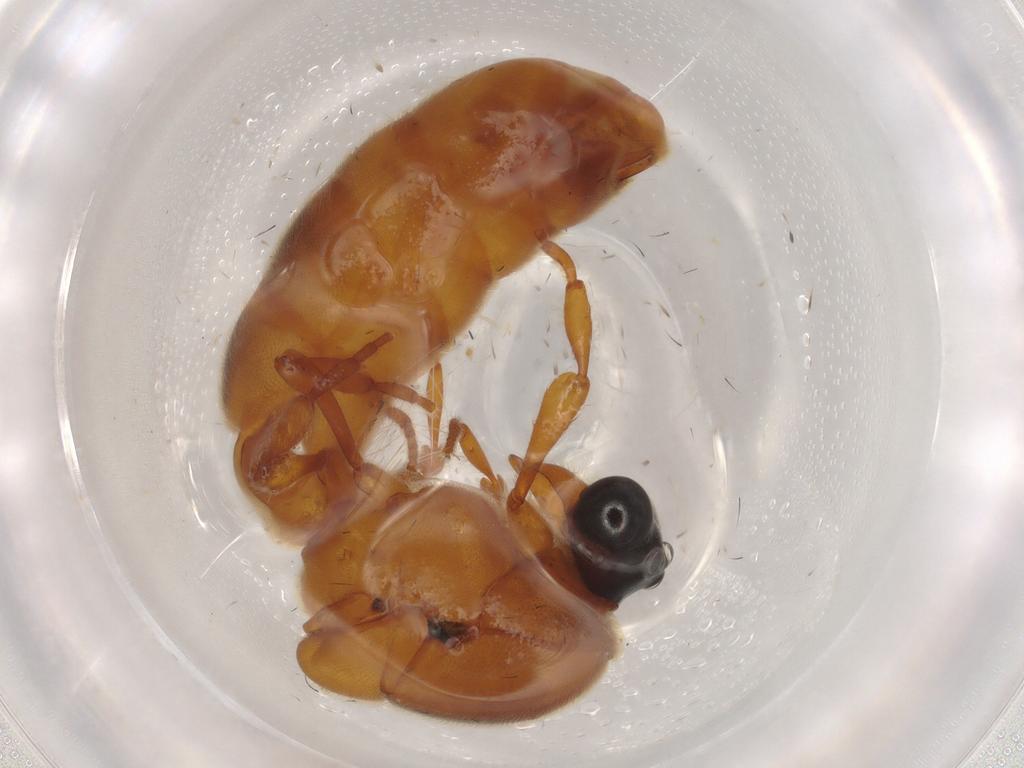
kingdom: Animalia
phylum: Arthropoda
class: Insecta
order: Hymenoptera
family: Formicidae
